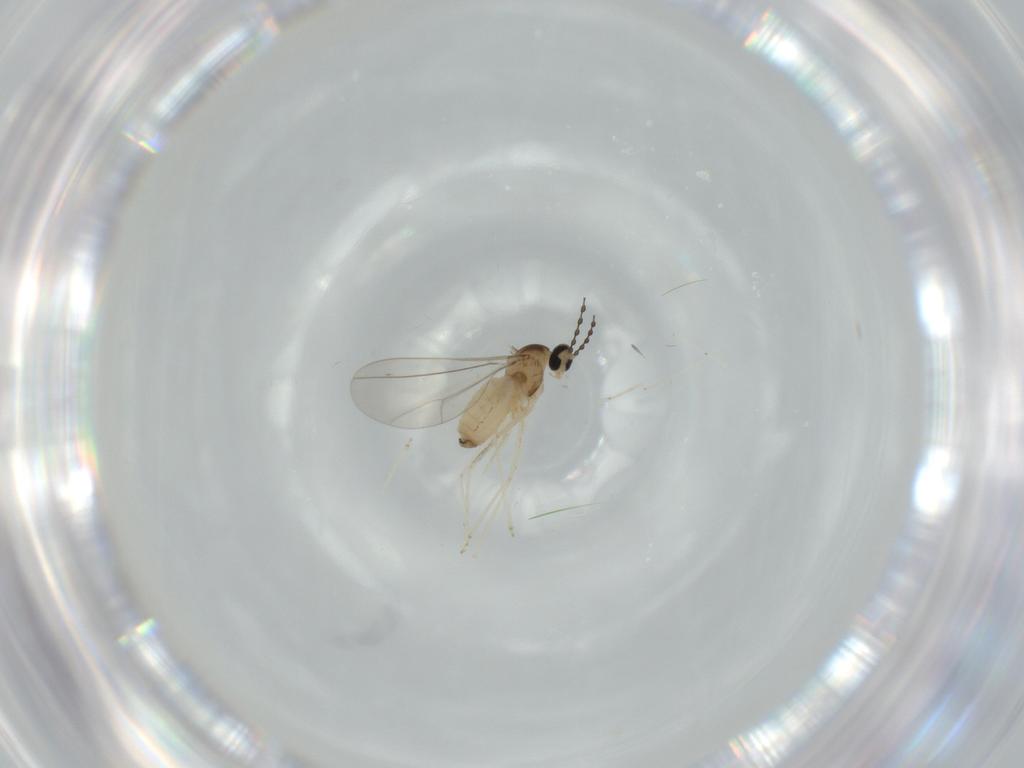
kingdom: Animalia
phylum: Arthropoda
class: Insecta
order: Diptera
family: Cecidomyiidae
